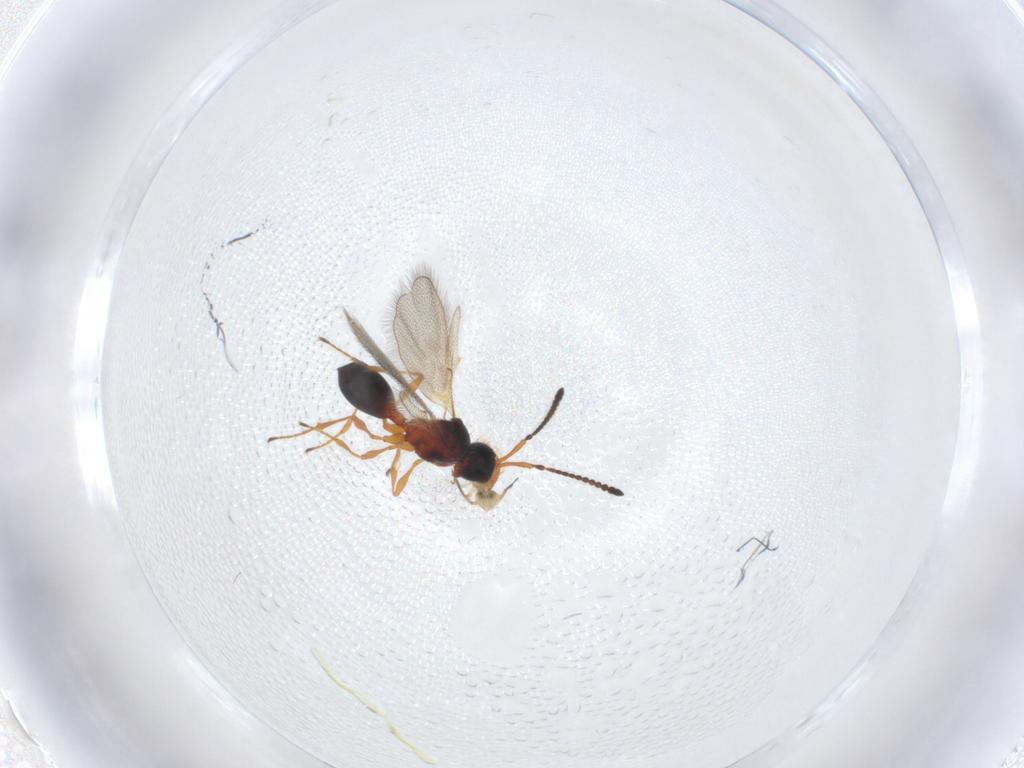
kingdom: Animalia
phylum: Arthropoda
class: Insecta
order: Hymenoptera
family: Diapriidae
